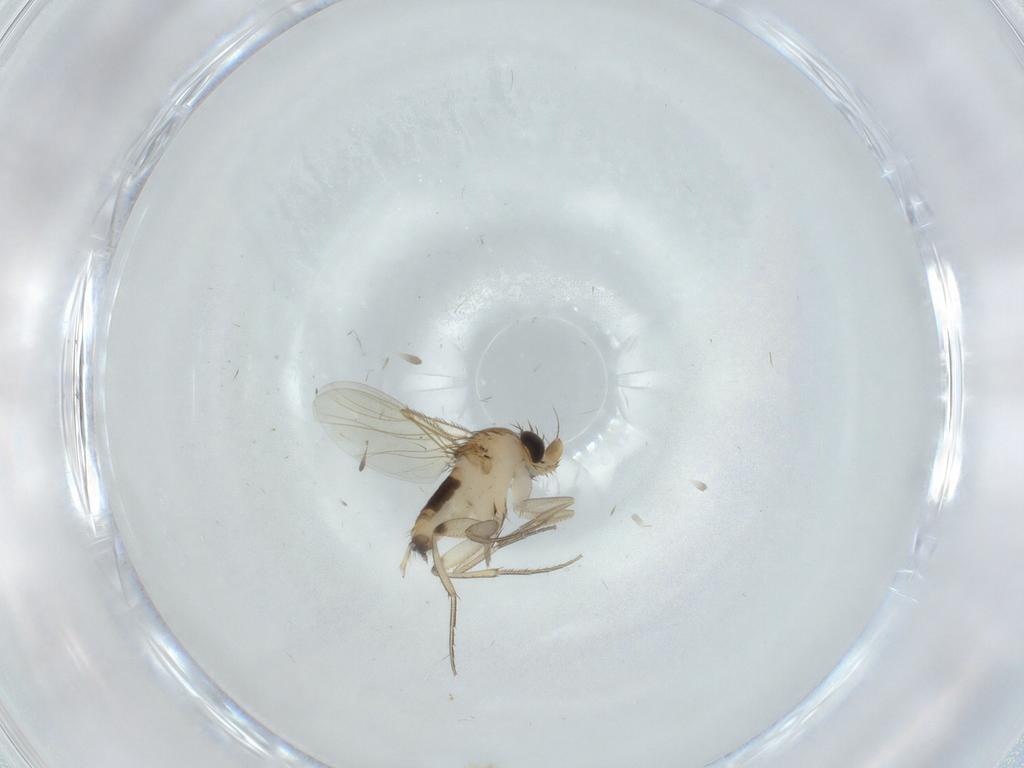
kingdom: Animalia
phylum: Arthropoda
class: Insecta
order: Diptera
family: Phoridae
